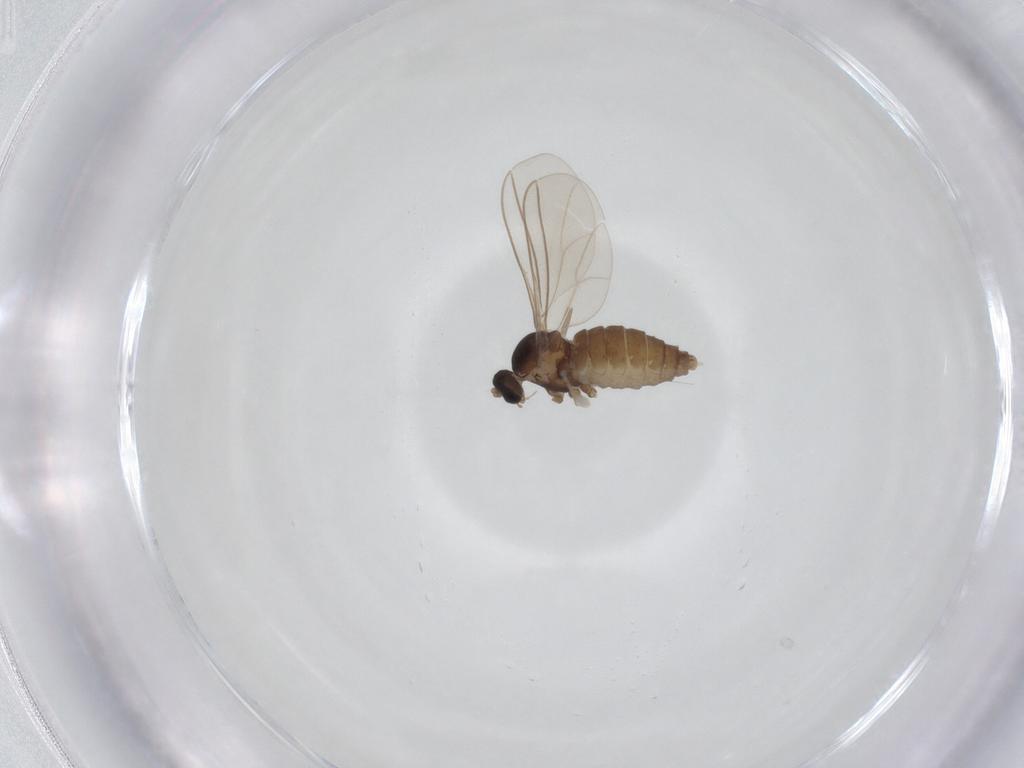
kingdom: Animalia
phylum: Arthropoda
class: Insecta
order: Diptera
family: Cecidomyiidae
